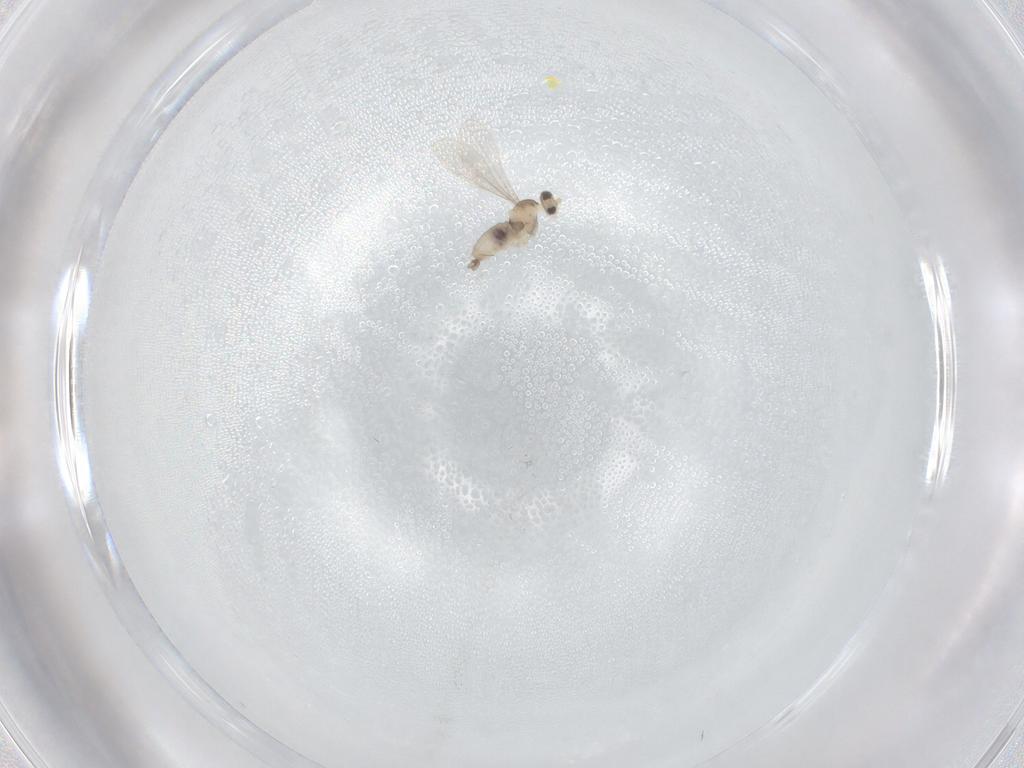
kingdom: Animalia
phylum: Arthropoda
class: Insecta
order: Diptera
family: Cecidomyiidae
